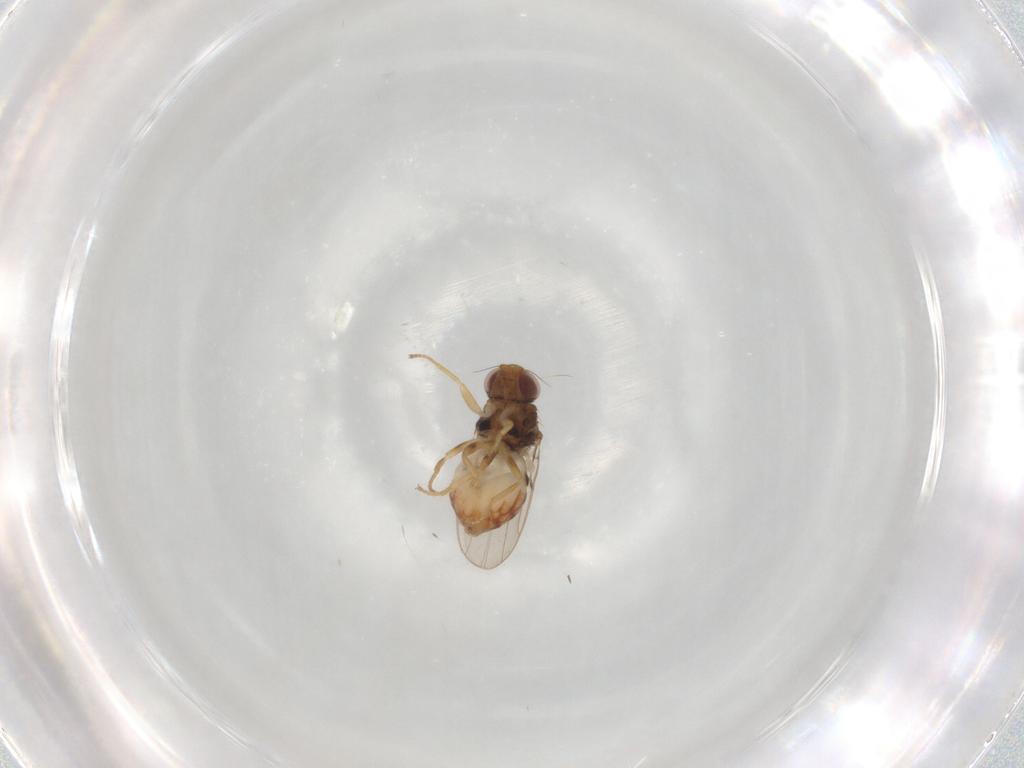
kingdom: Animalia
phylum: Arthropoda
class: Insecta
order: Diptera
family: Chloropidae
